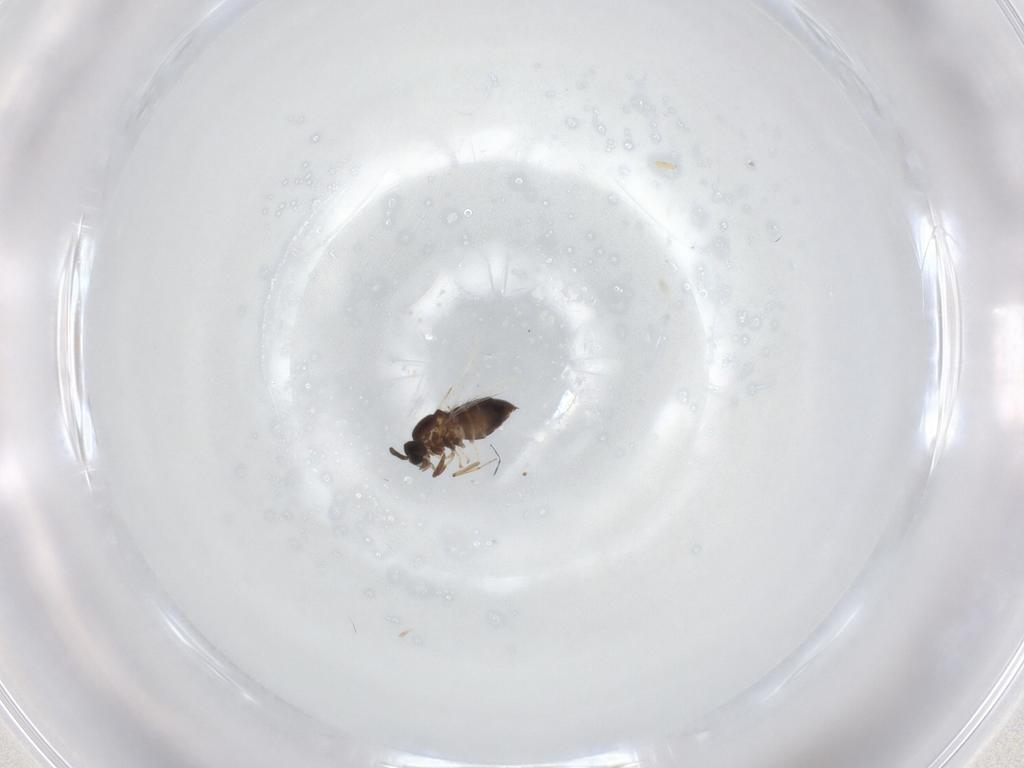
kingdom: Animalia
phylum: Arthropoda
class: Insecta
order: Diptera
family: Scatopsidae
